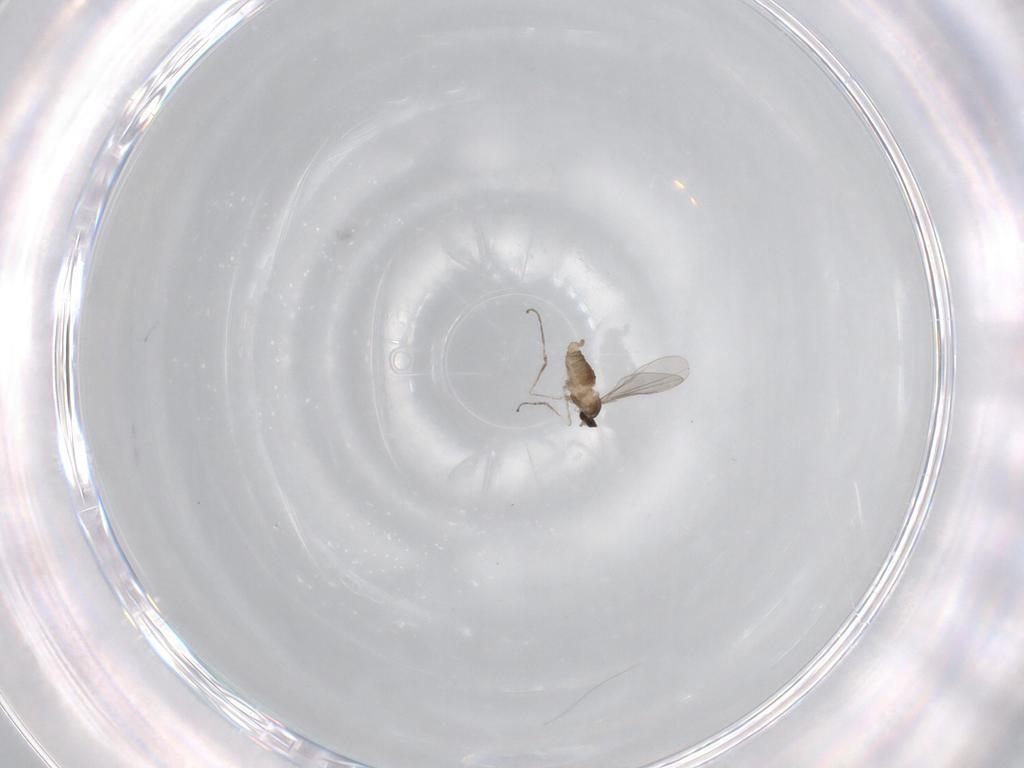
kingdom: Animalia
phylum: Arthropoda
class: Insecta
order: Diptera
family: Cecidomyiidae
